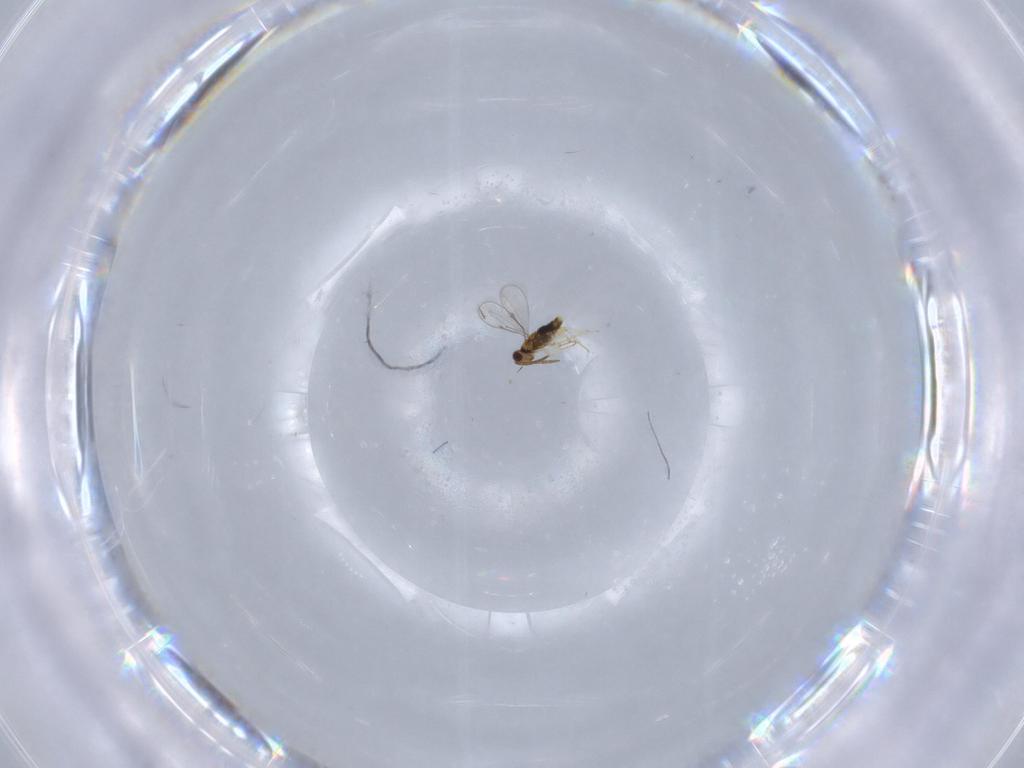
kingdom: Animalia
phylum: Arthropoda
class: Insecta
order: Hymenoptera
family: Aphelinidae
